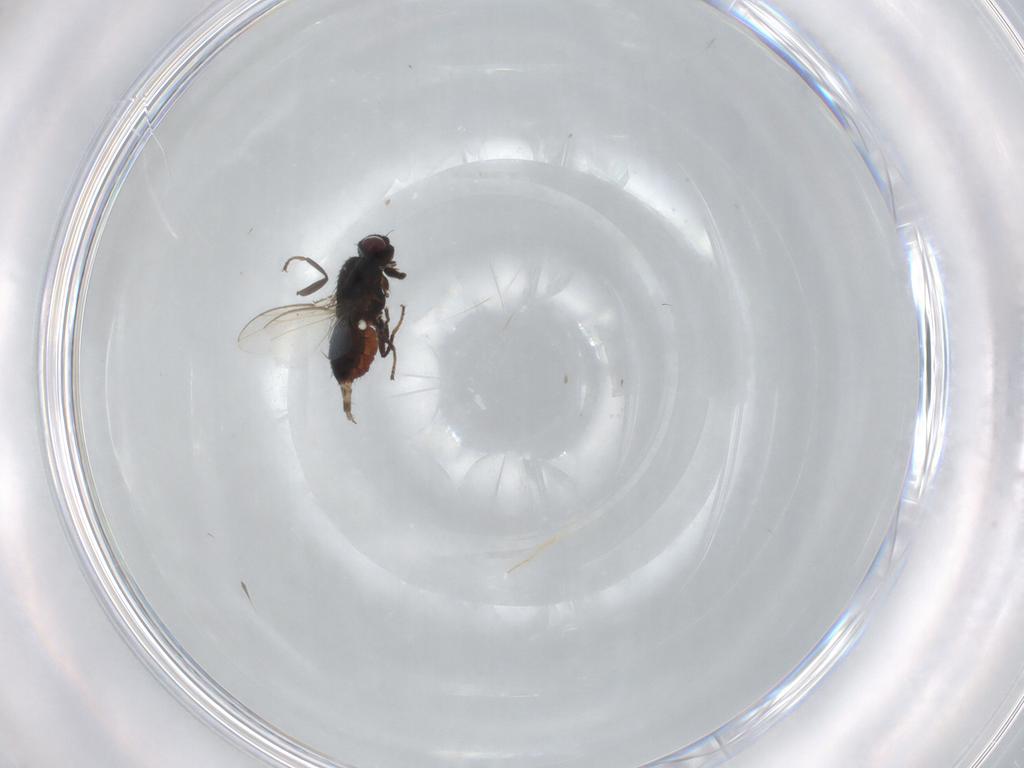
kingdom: Animalia
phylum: Arthropoda
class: Insecta
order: Diptera
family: Carnidae
